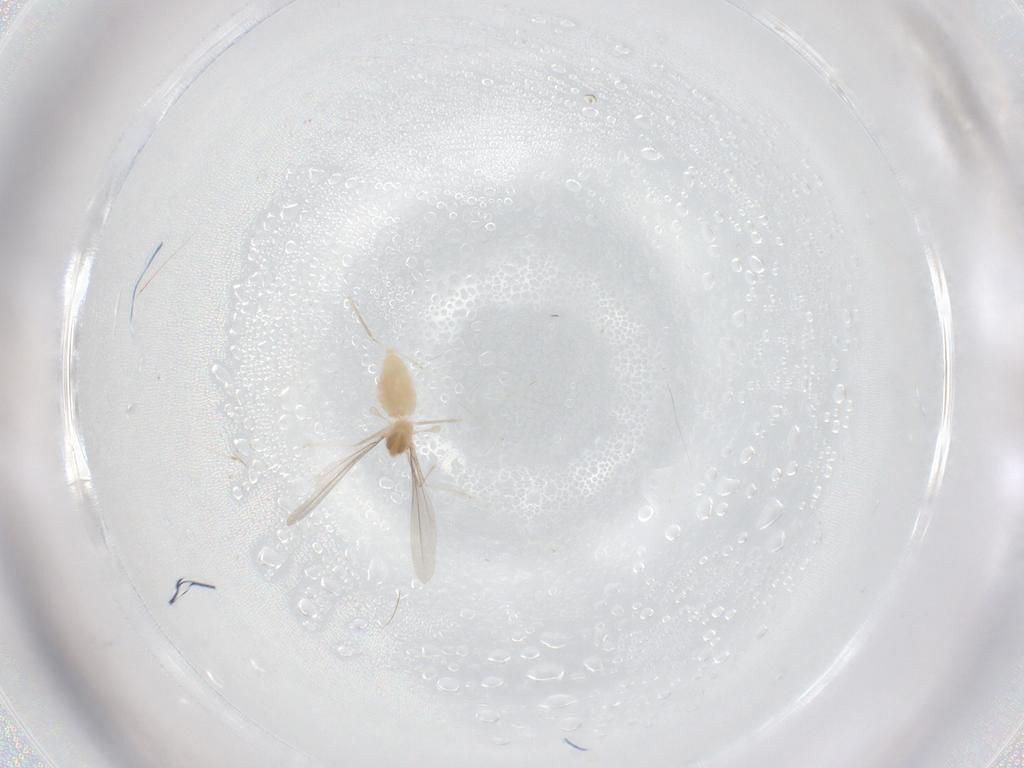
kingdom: Animalia
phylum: Arthropoda
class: Insecta
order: Diptera
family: Cecidomyiidae
